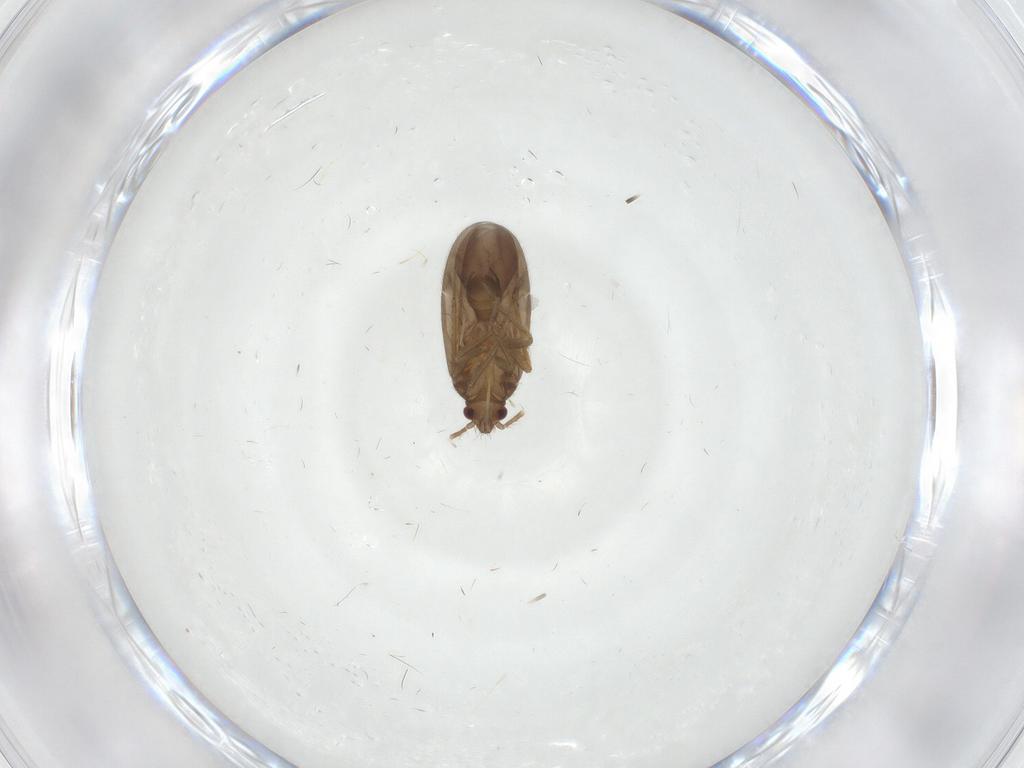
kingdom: Animalia
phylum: Arthropoda
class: Insecta
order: Hemiptera
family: Ceratocombidae
